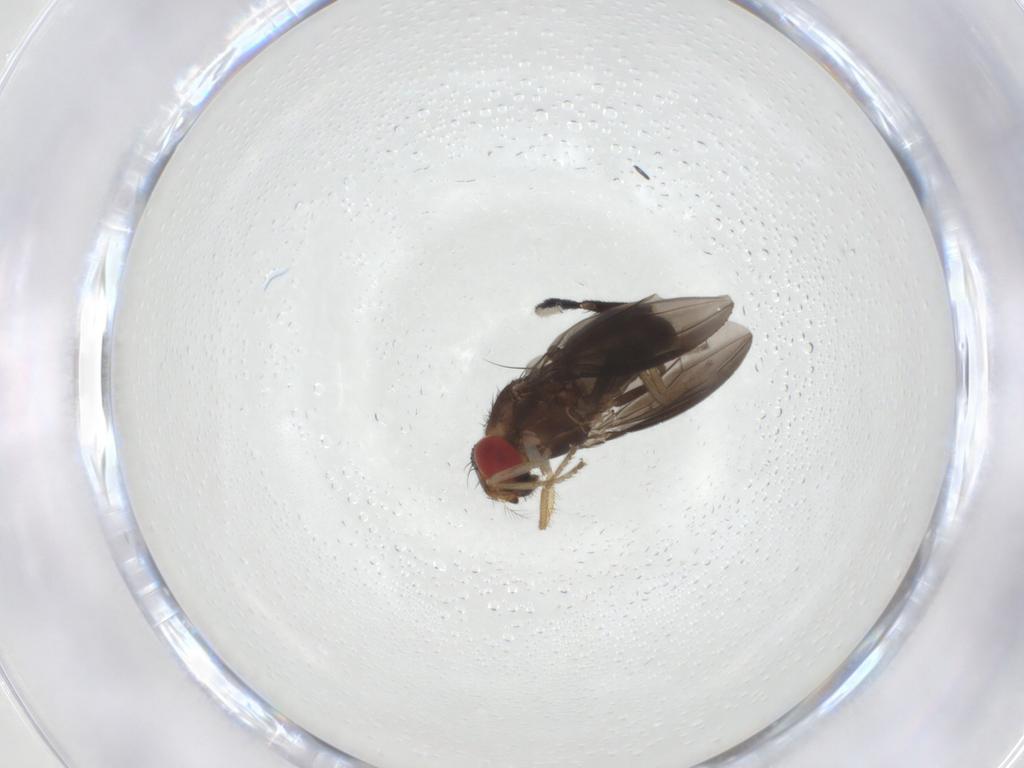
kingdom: Animalia
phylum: Arthropoda
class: Insecta
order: Diptera
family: Drosophilidae
